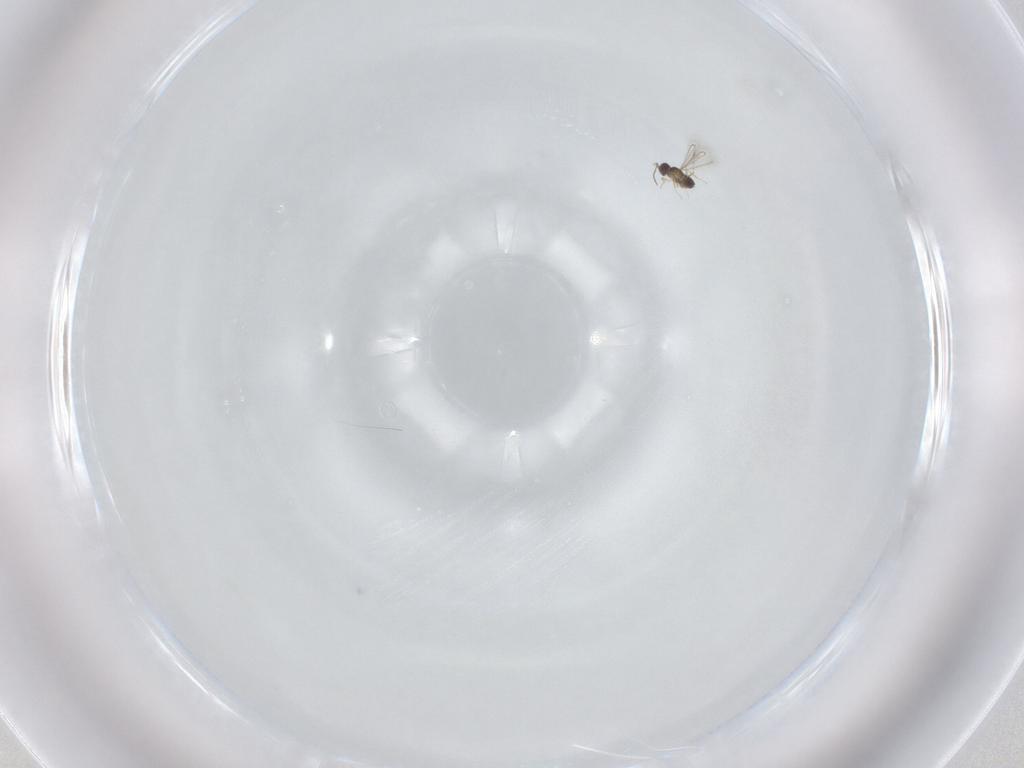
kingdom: Animalia
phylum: Arthropoda
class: Insecta
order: Hymenoptera
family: Mymaridae
